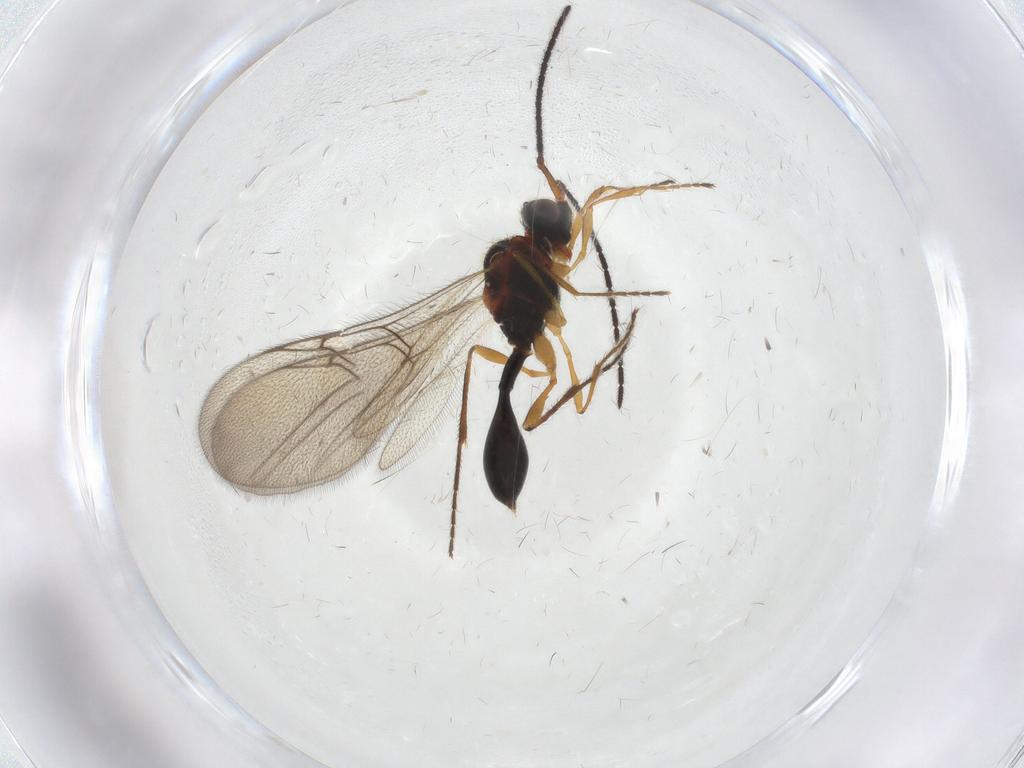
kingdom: Animalia
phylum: Arthropoda
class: Insecta
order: Hymenoptera
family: Diapriidae
